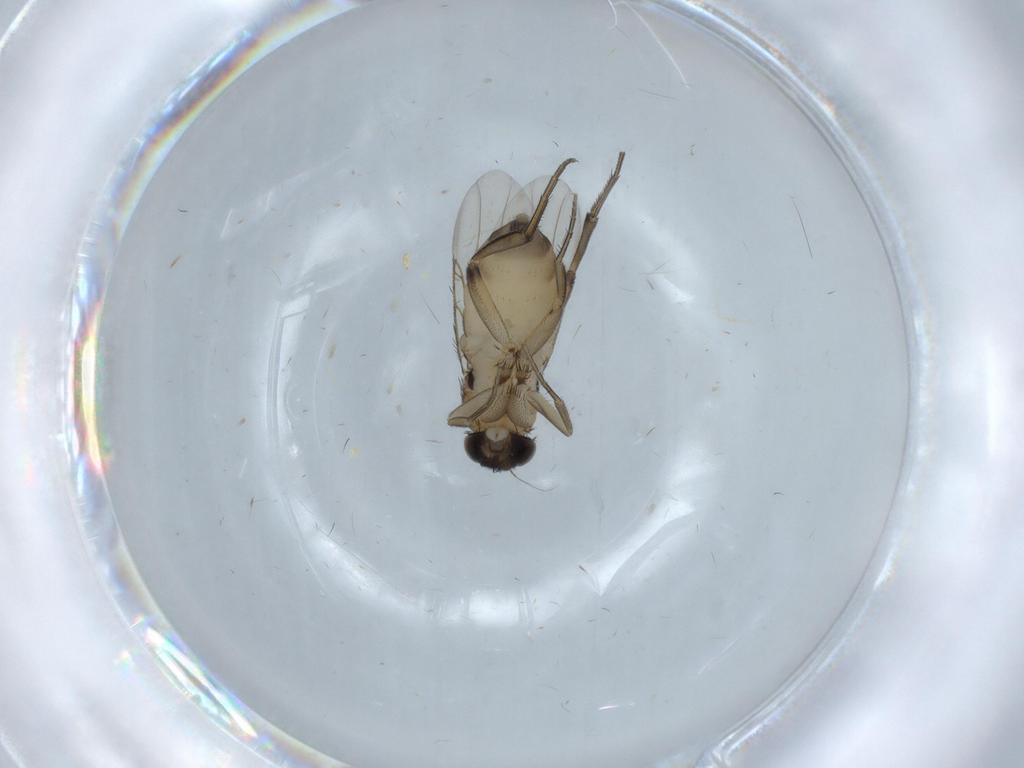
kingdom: Animalia
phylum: Arthropoda
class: Insecta
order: Diptera
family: Phoridae
